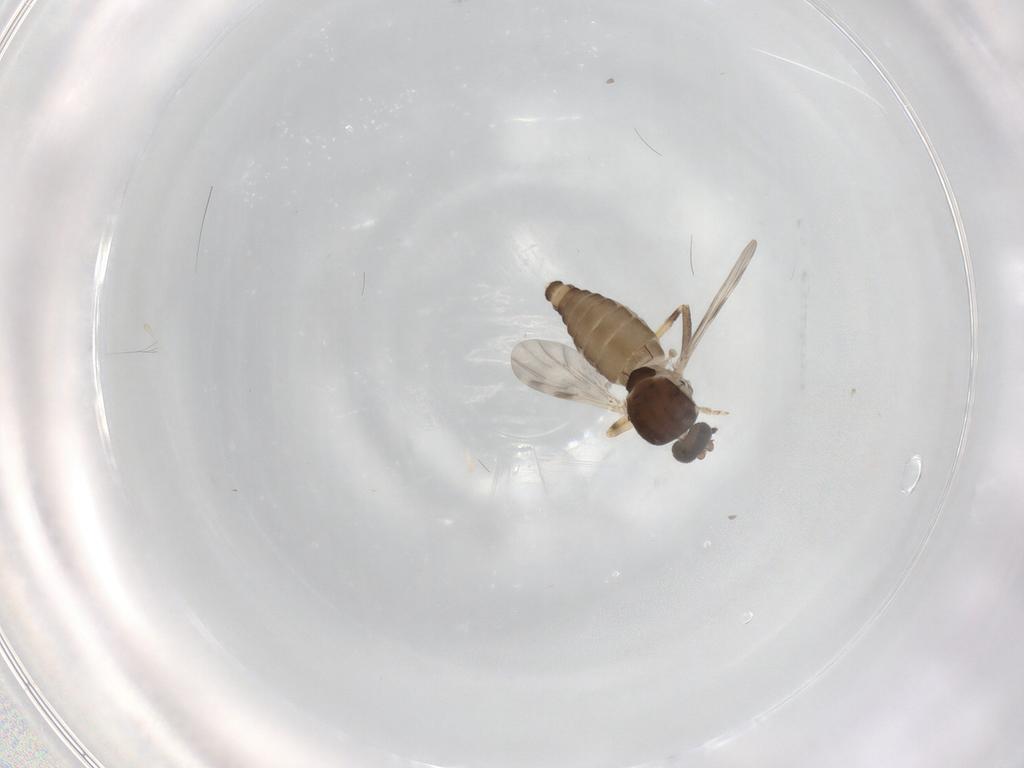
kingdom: Animalia
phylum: Arthropoda
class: Insecta
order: Diptera
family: Ceratopogonidae
